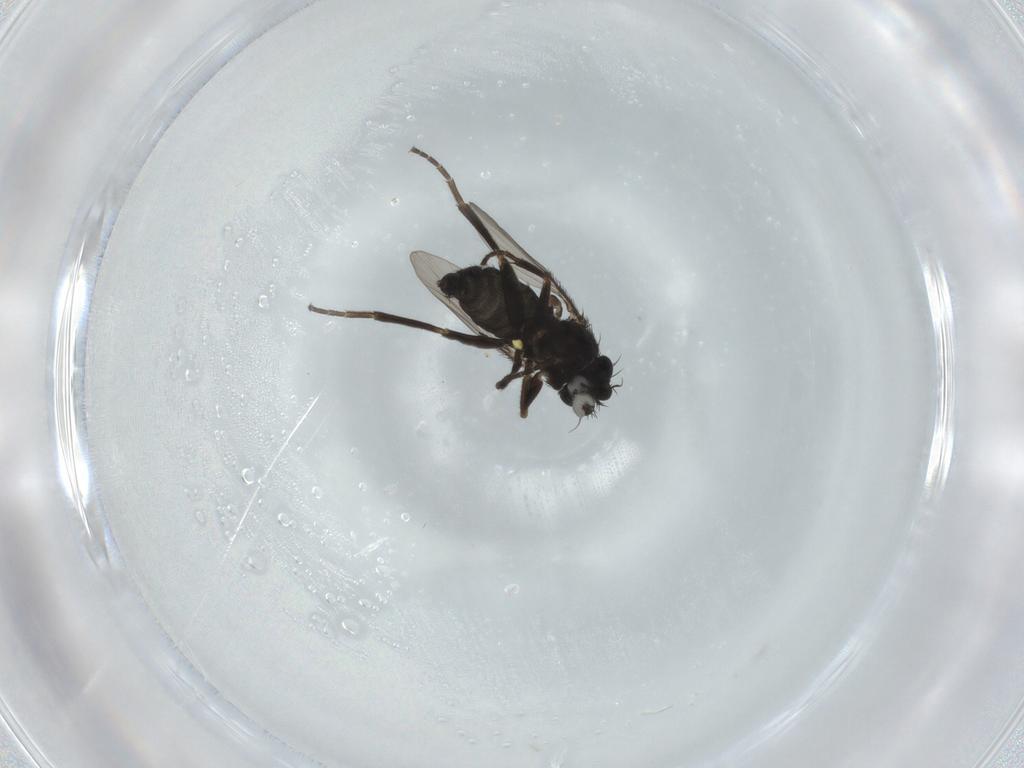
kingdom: Animalia
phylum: Arthropoda
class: Insecta
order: Diptera
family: Phoridae
